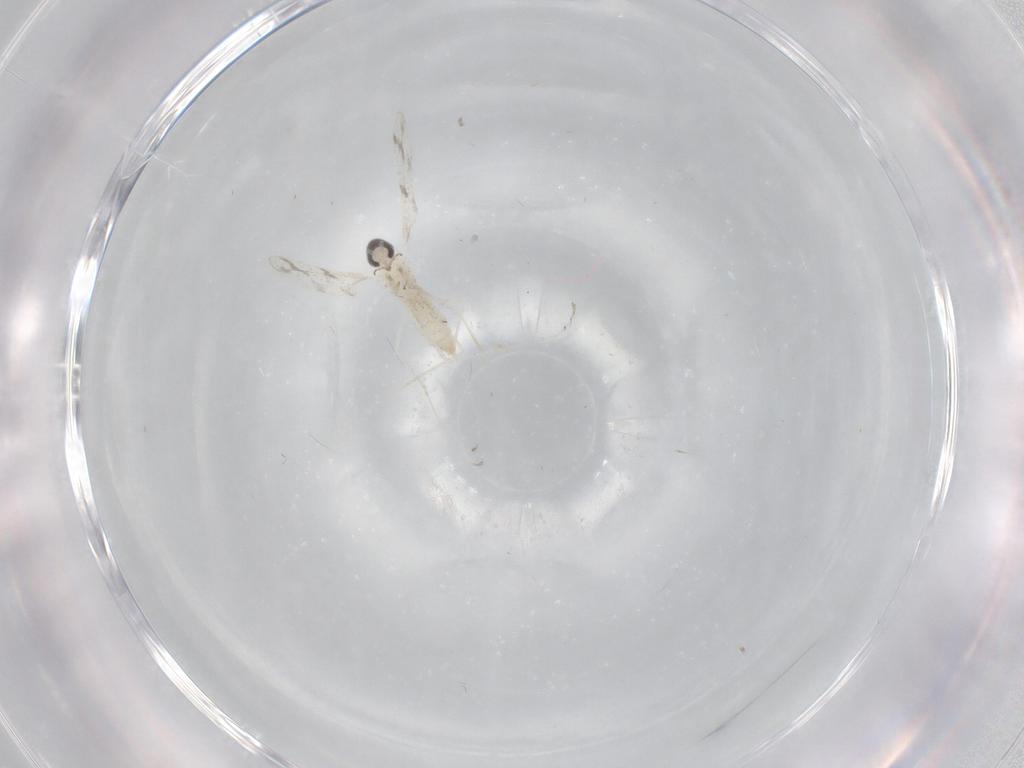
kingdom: Animalia
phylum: Arthropoda
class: Insecta
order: Diptera
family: Cecidomyiidae
